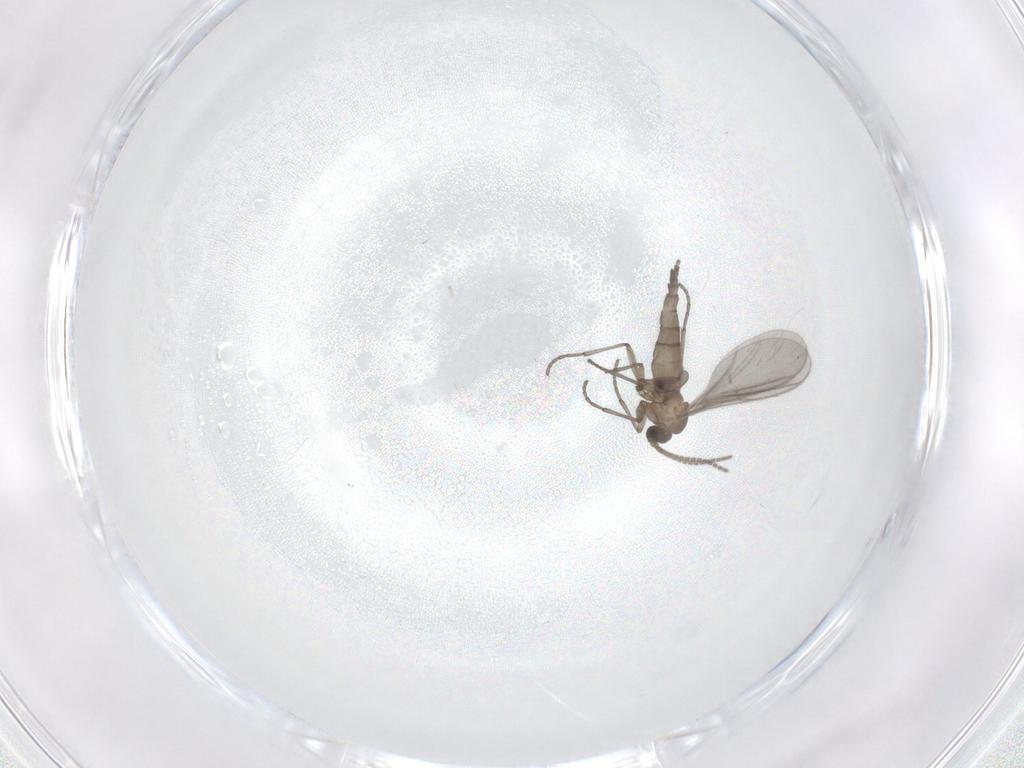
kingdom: Animalia
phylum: Arthropoda
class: Insecta
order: Diptera
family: Sciaridae
